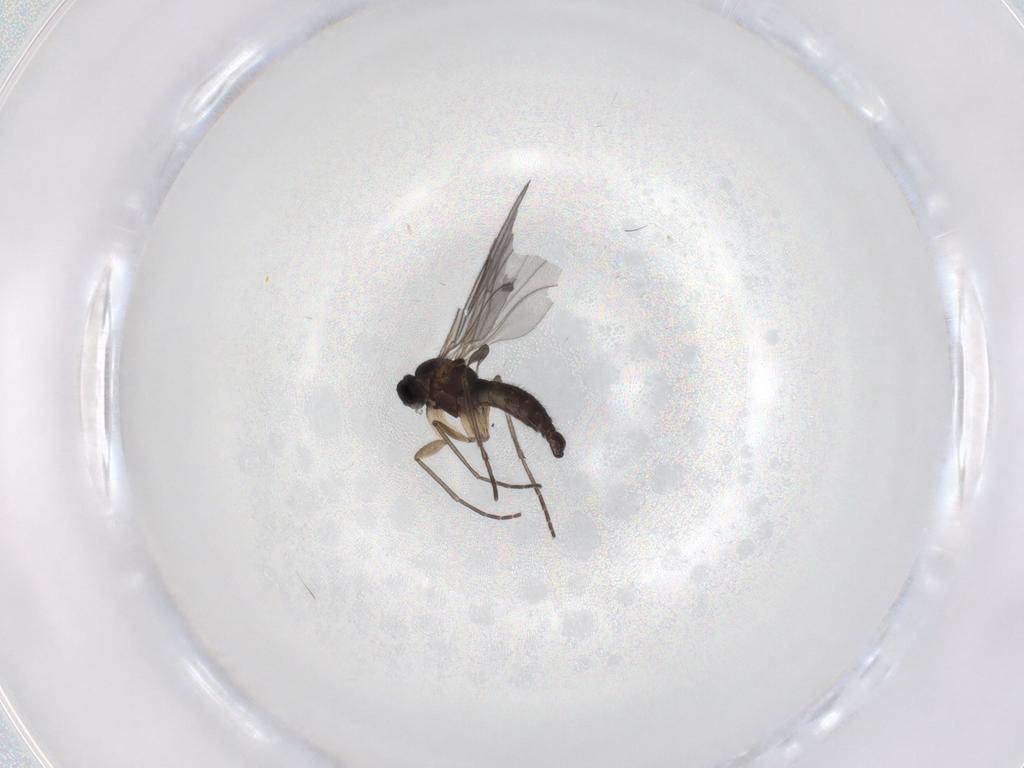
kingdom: Animalia
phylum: Arthropoda
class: Insecta
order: Diptera
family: Sciaridae
